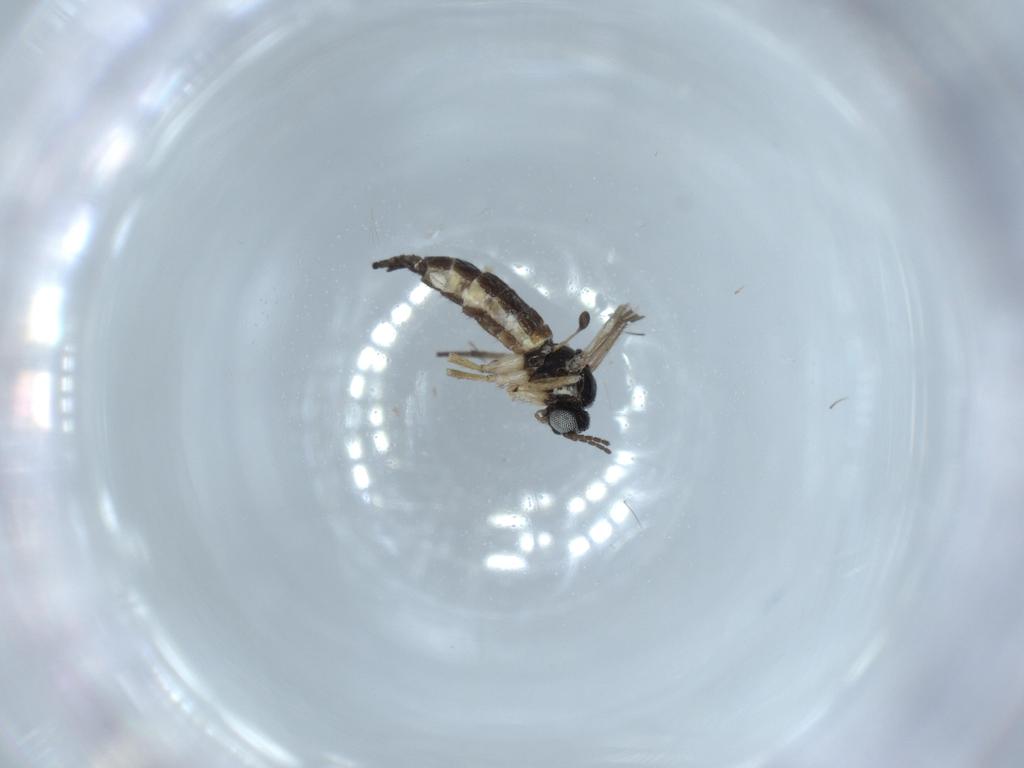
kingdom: Animalia
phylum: Arthropoda
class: Insecta
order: Diptera
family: Sciaridae
